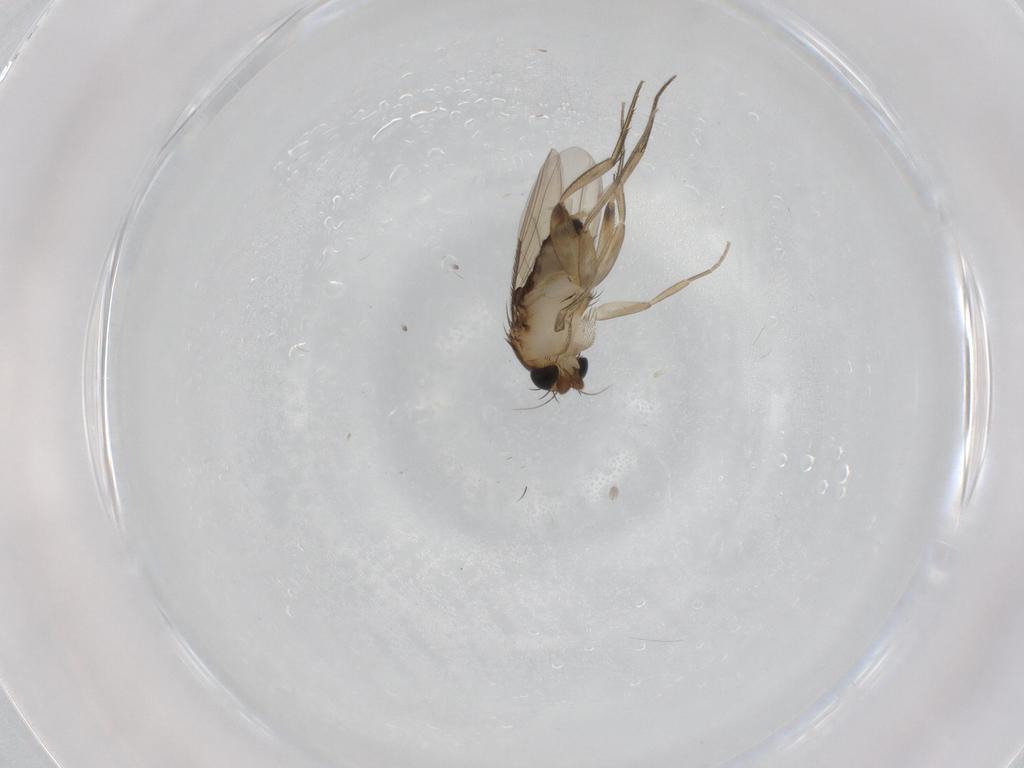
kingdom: Animalia
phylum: Arthropoda
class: Insecta
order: Diptera
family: Phoridae
